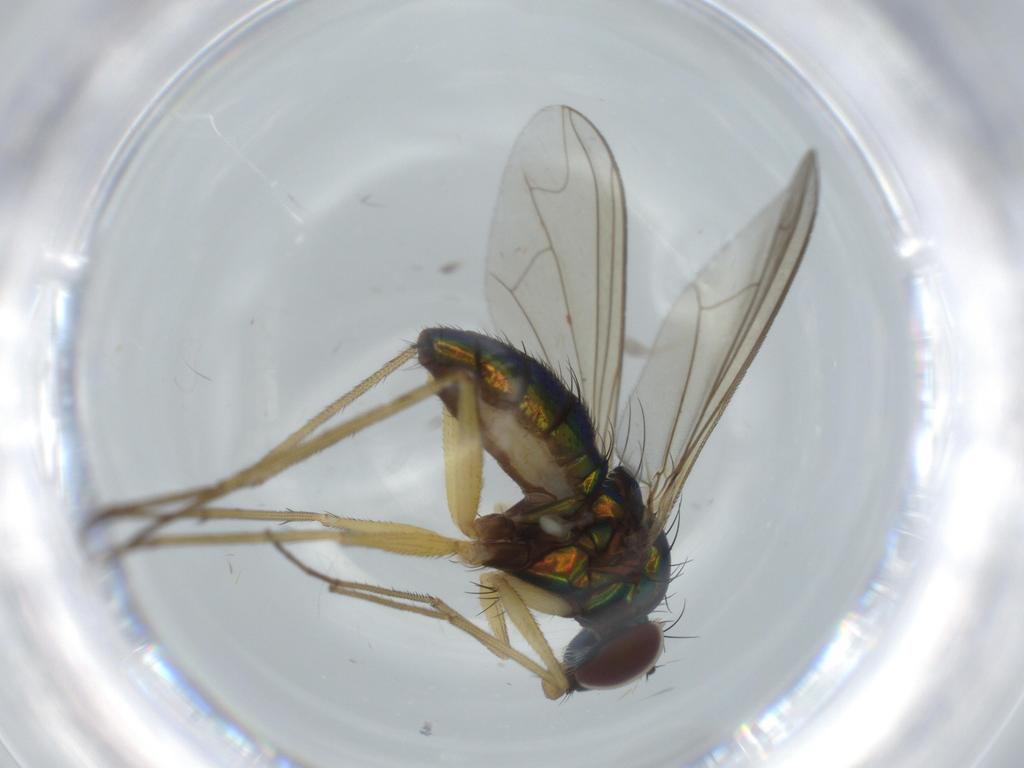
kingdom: Animalia
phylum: Arthropoda
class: Insecta
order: Diptera
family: Dolichopodidae
